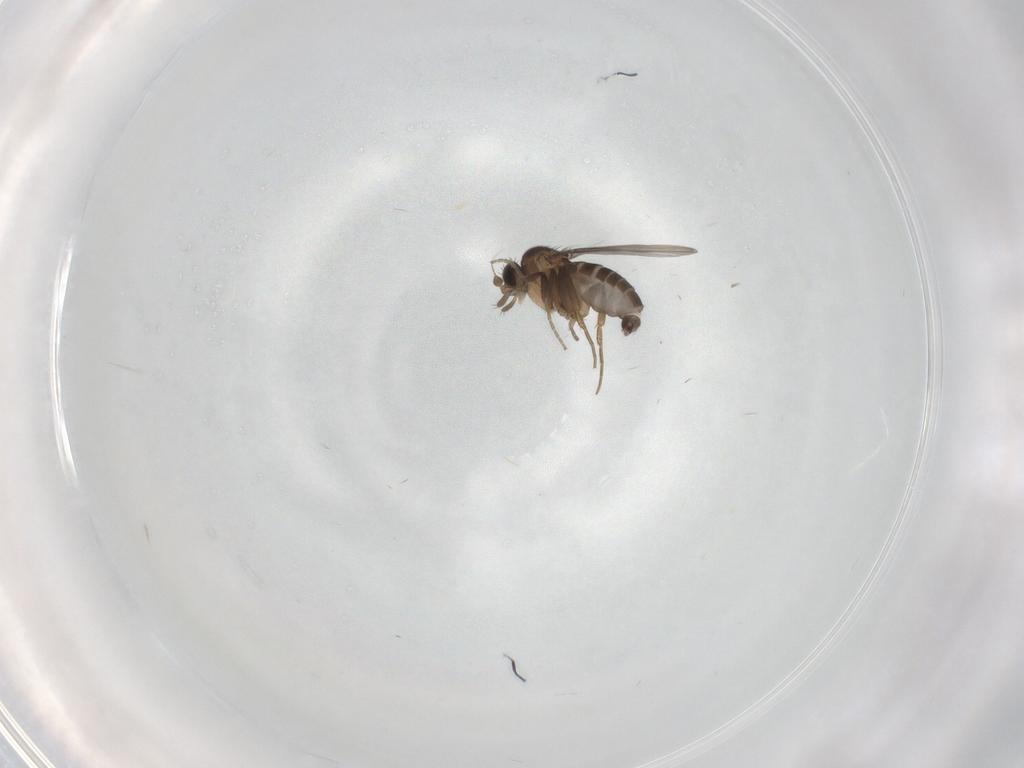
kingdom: Animalia
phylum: Arthropoda
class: Insecta
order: Diptera
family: Phoridae
